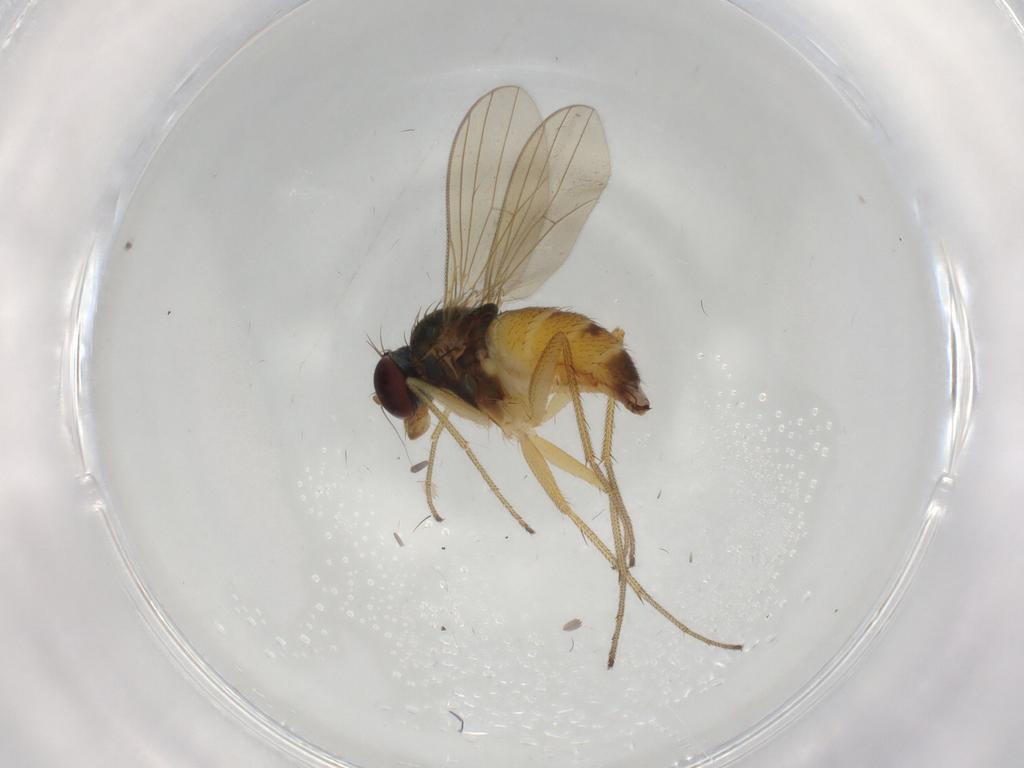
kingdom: Animalia
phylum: Arthropoda
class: Insecta
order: Diptera
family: Dolichopodidae
